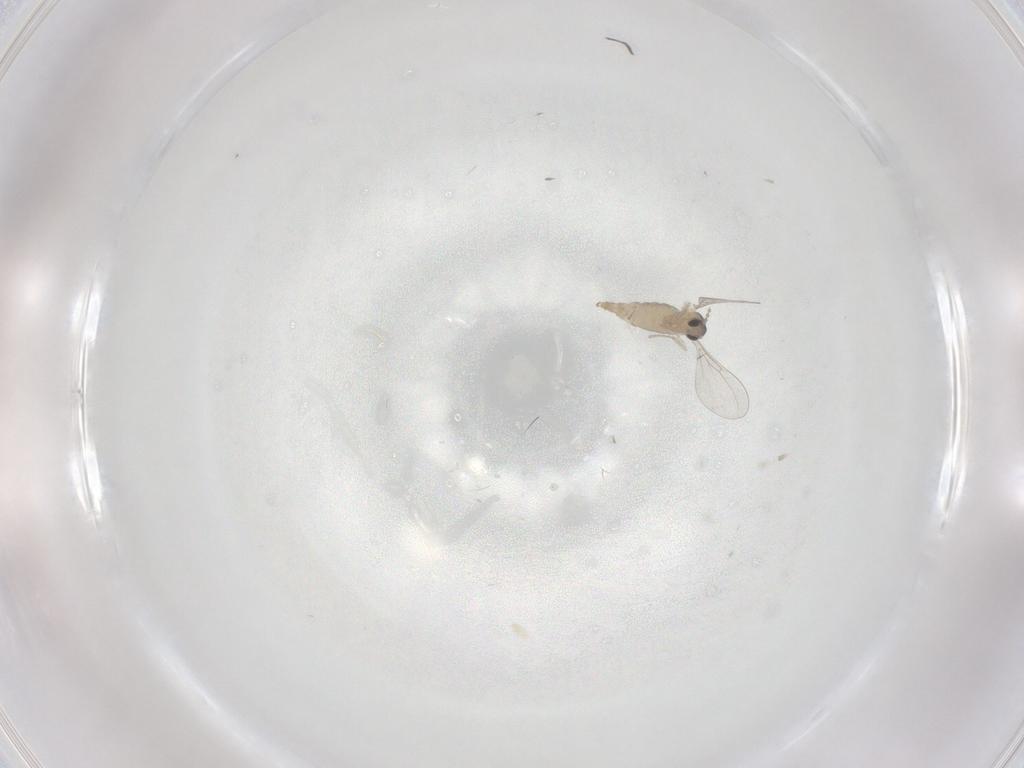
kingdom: Animalia
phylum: Arthropoda
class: Insecta
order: Diptera
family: Cecidomyiidae
